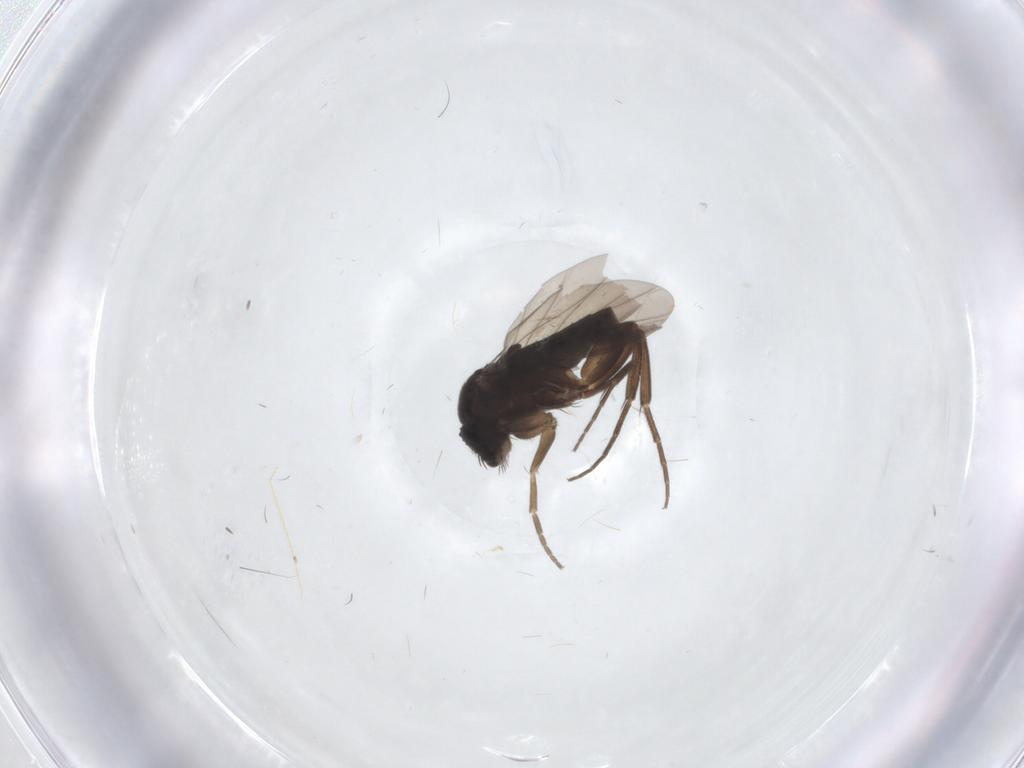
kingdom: Animalia
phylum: Arthropoda
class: Insecta
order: Diptera
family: Phoridae
